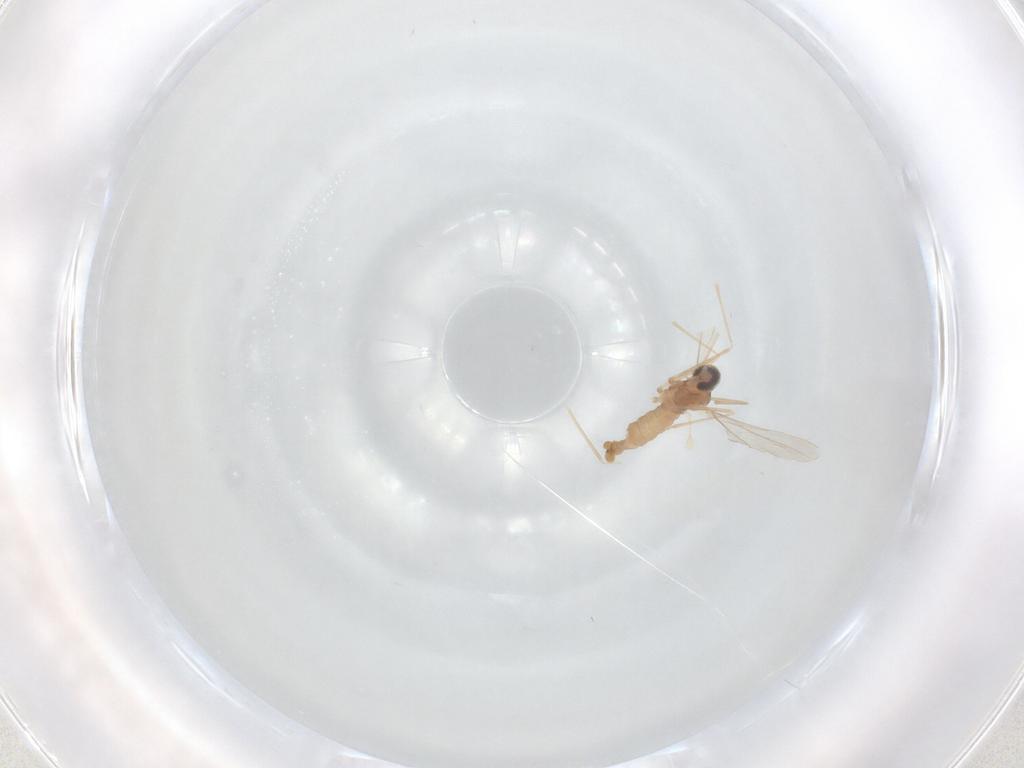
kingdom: Animalia
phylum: Arthropoda
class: Insecta
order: Diptera
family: Cecidomyiidae
